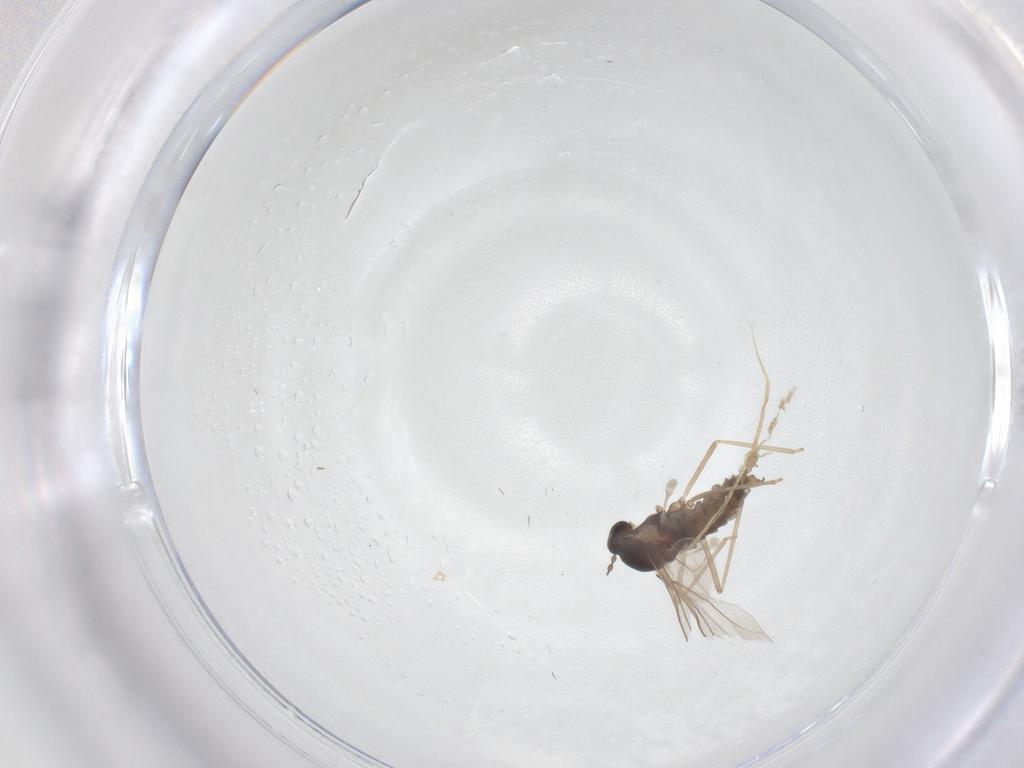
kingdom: Animalia
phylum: Arthropoda
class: Insecta
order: Diptera
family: Cecidomyiidae
